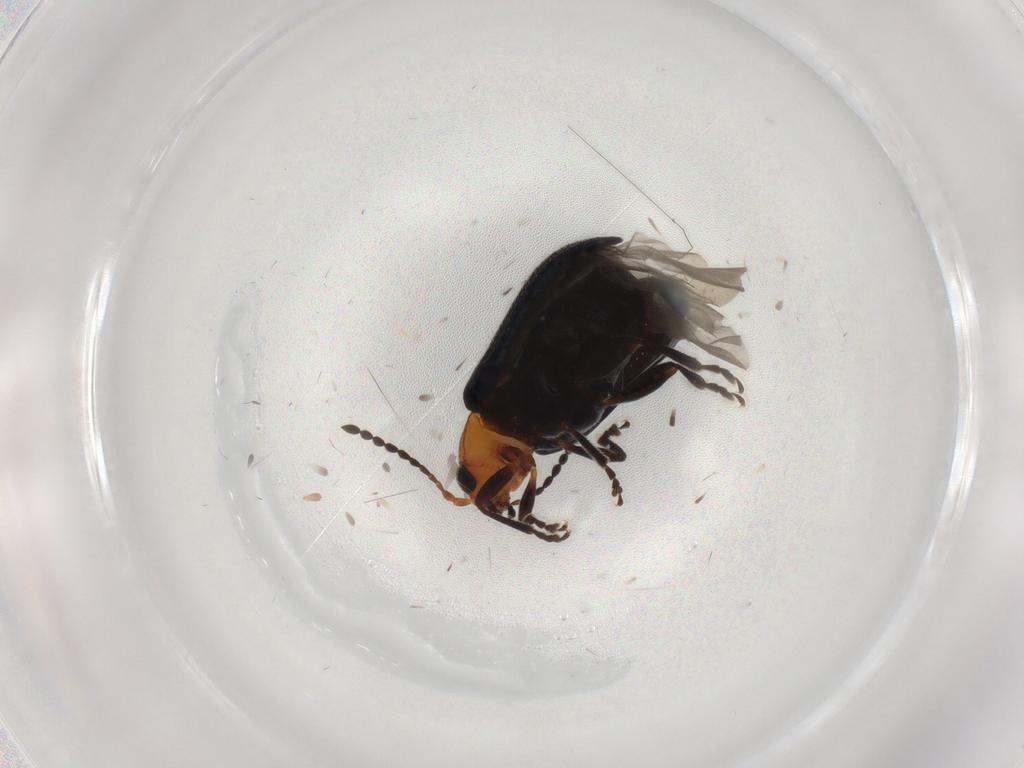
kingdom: Animalia
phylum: Arthropoda
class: Insecta
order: Coleoptera
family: Chrysomelidae
